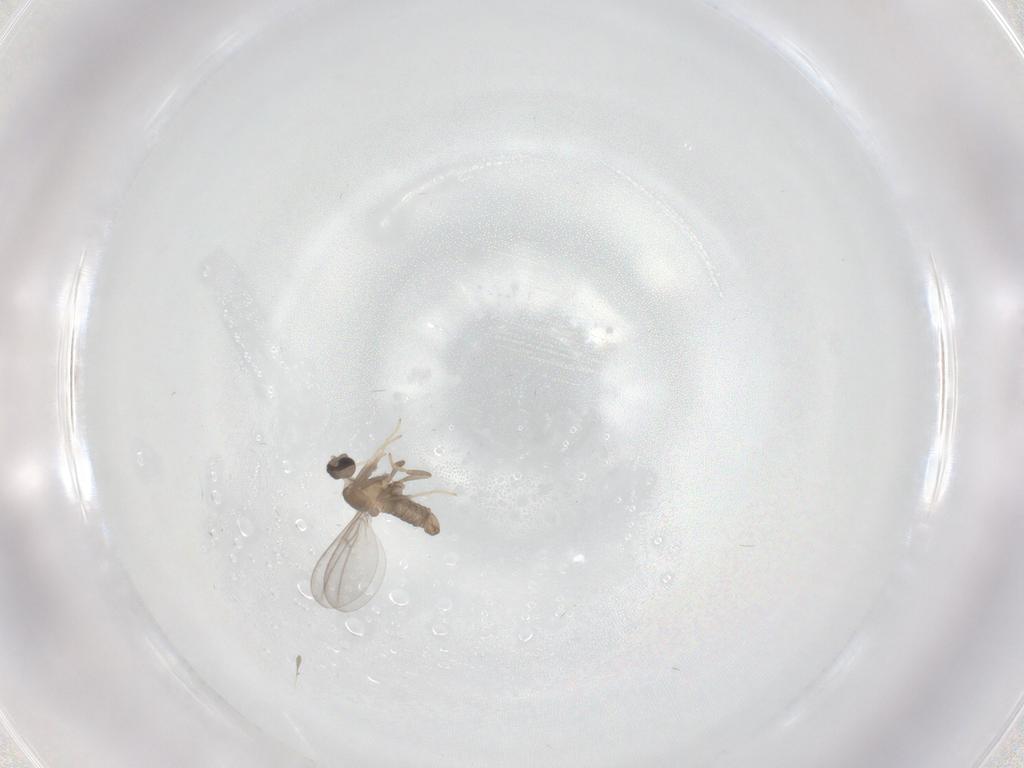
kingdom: Animalia
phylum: Arthropoda
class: Insecta
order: Diptera
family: Cecidomyiidae
